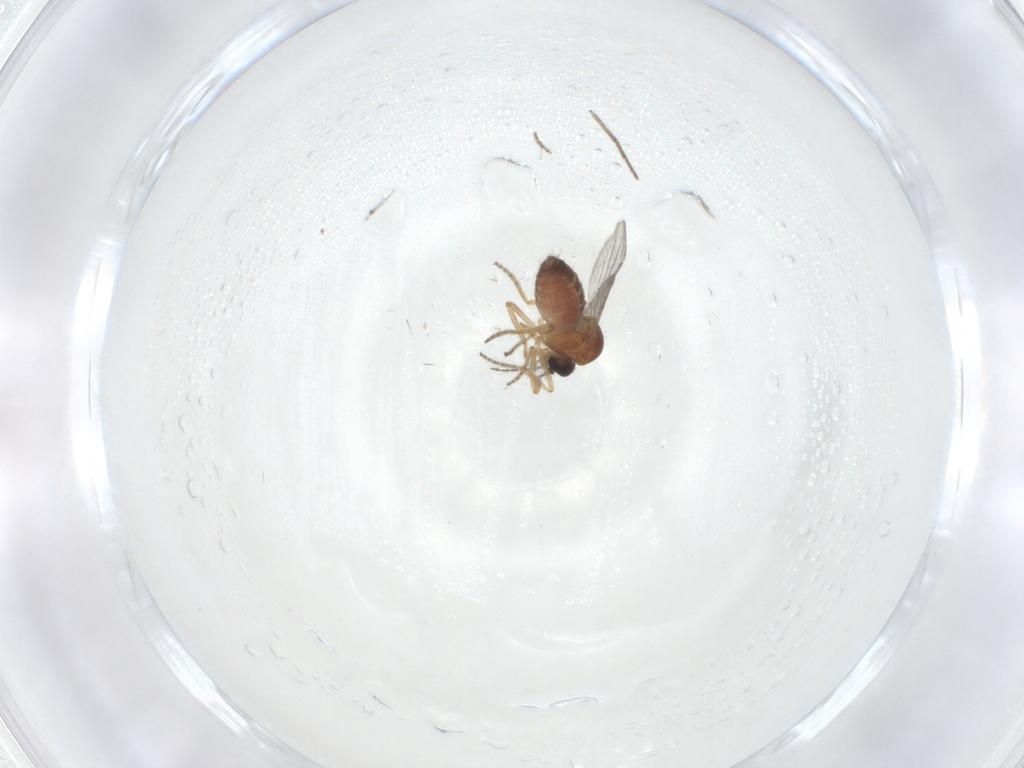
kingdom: Animalia
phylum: Arthropoda
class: Insecta
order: Diptera
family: Ceratopogonidae
